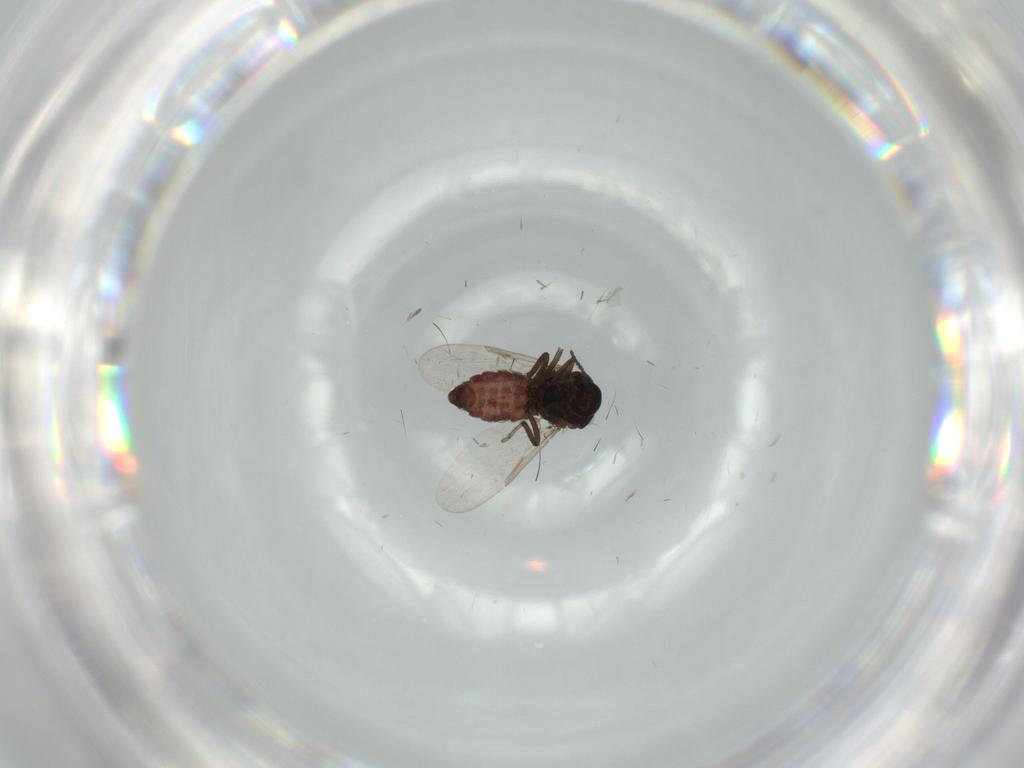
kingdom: Animalia
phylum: Arthropoda
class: Insecta
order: Diptera
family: Ceratopogonidae
